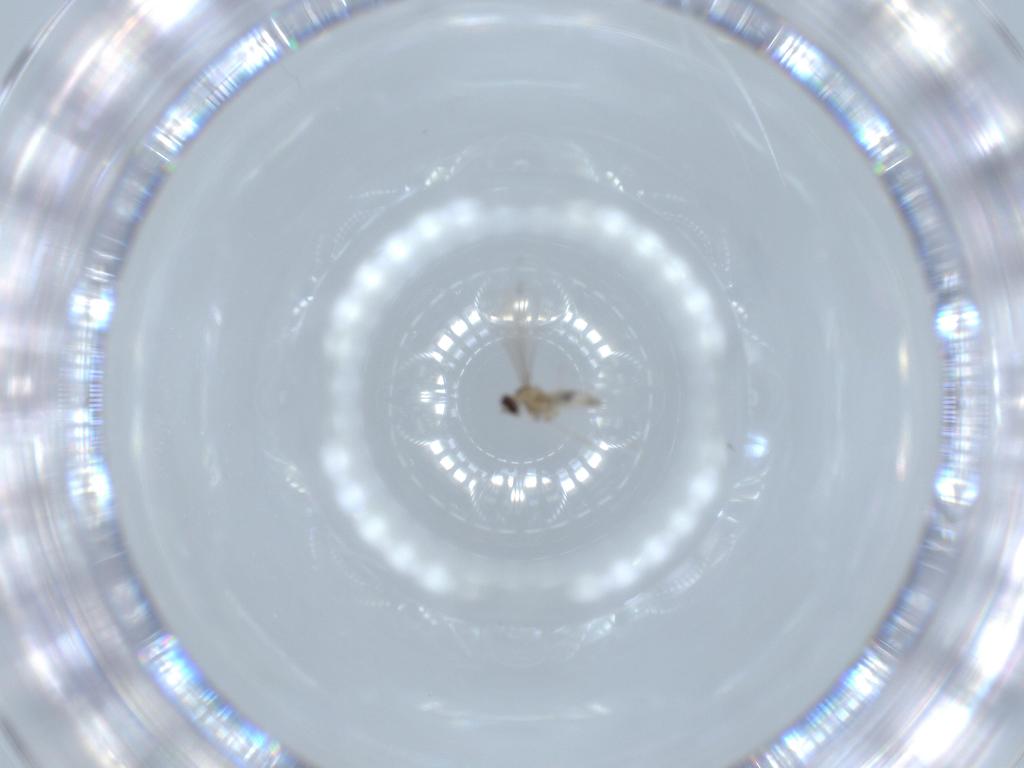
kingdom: Animalia
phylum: Arthropoda
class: Insecta
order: Diptera
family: Cecidomyiidae
